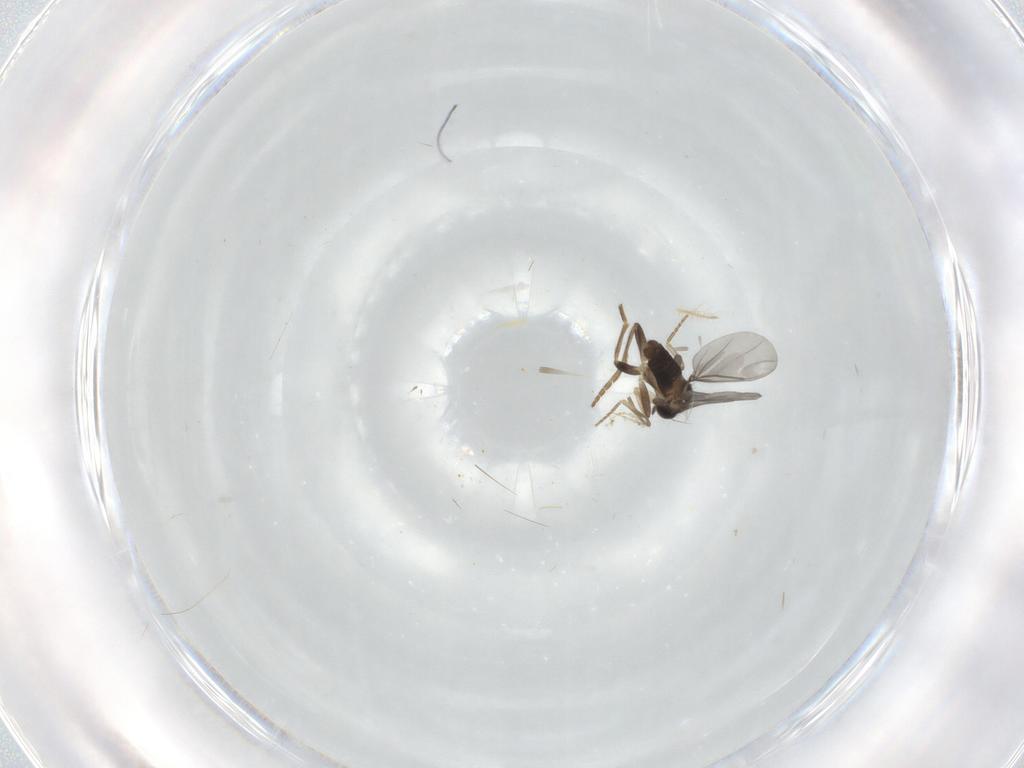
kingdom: Animalia
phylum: Arthropoda
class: Insecta
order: Diptera
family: Chironomidae
